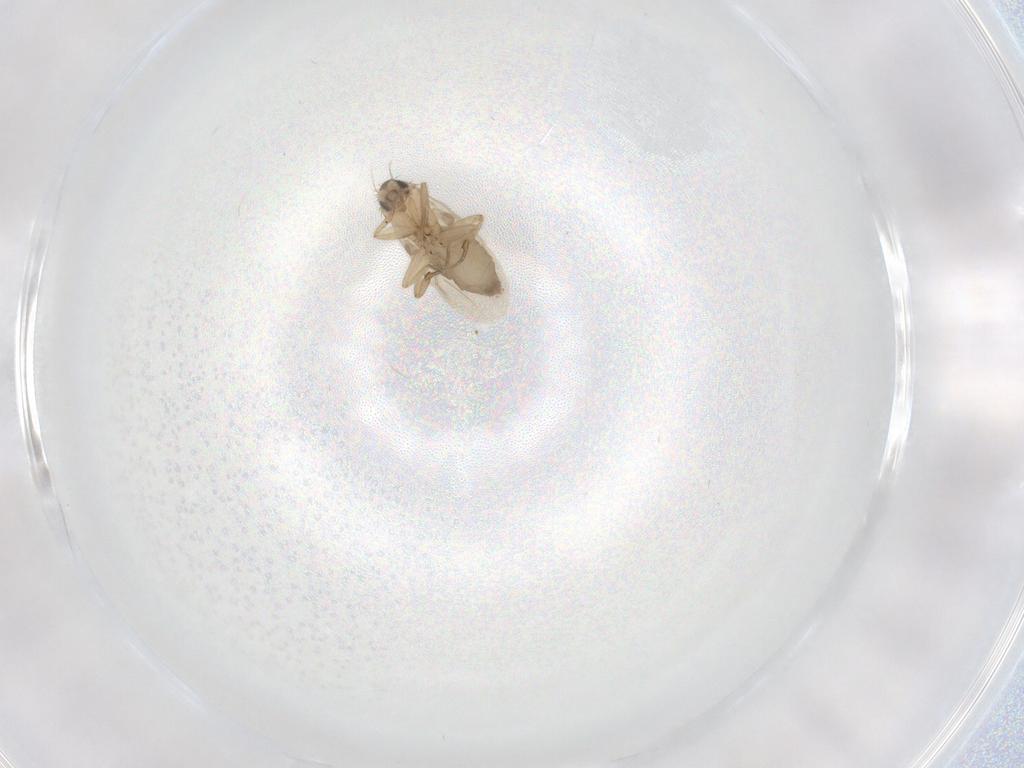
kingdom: Animalia
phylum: Arthropoda
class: Insecta
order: Diptera
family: Phoridae
